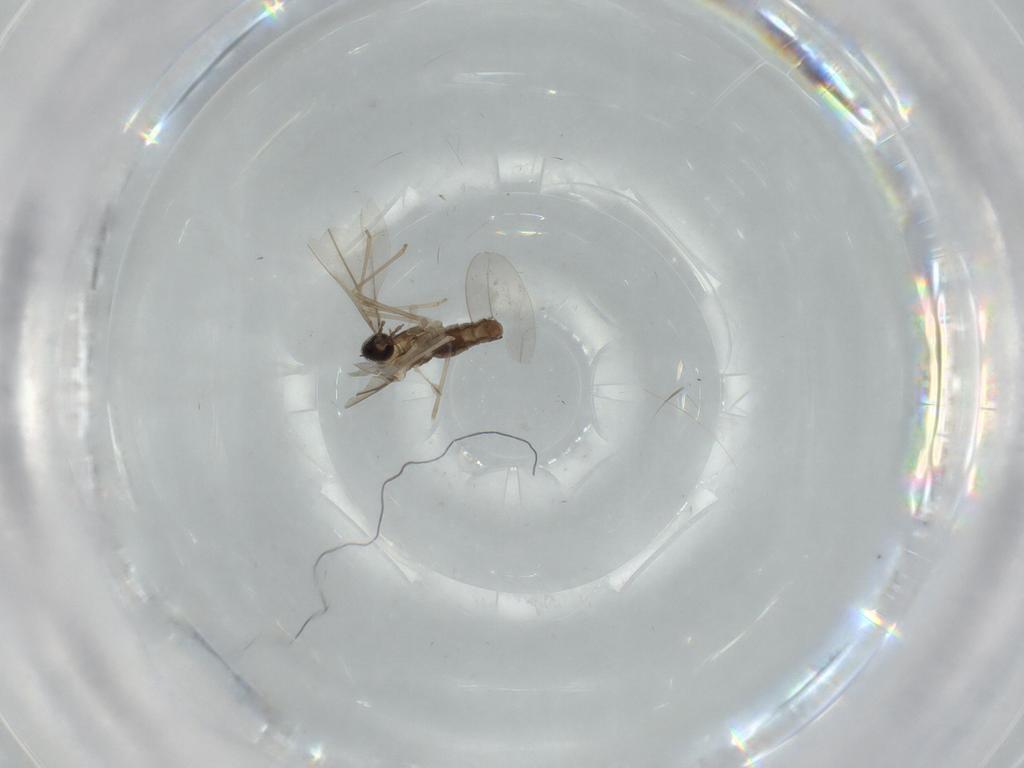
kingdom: Animalia
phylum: Arthropoda
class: Insecta
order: Diptera
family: Cecidomyiidae
